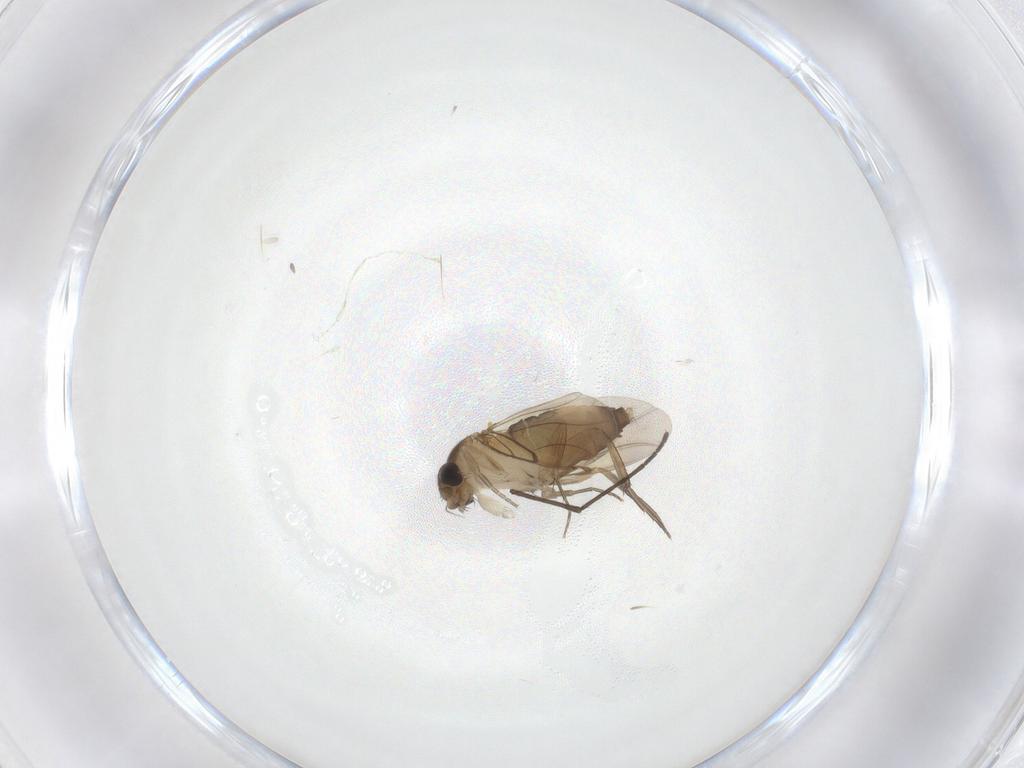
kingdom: Animalia
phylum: Arthropoda
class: Insecta
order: Diptera
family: Sciaridae
